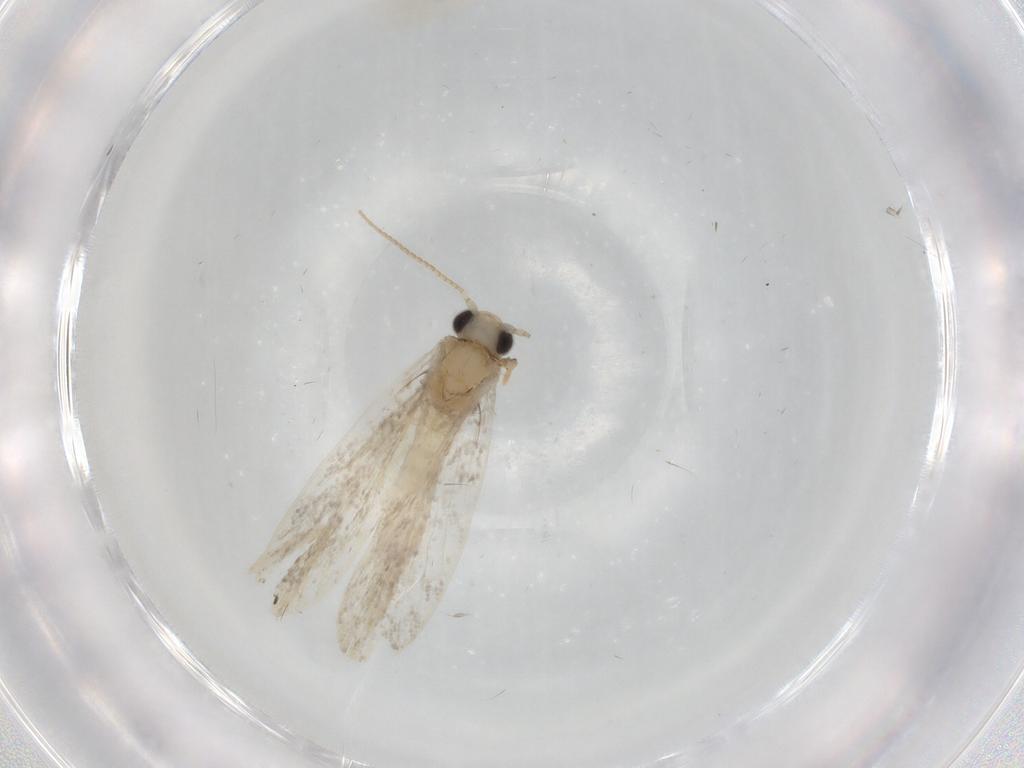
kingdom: Animalia
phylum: Arthropoda
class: Insecta
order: Lepidoptera
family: Psychidae
